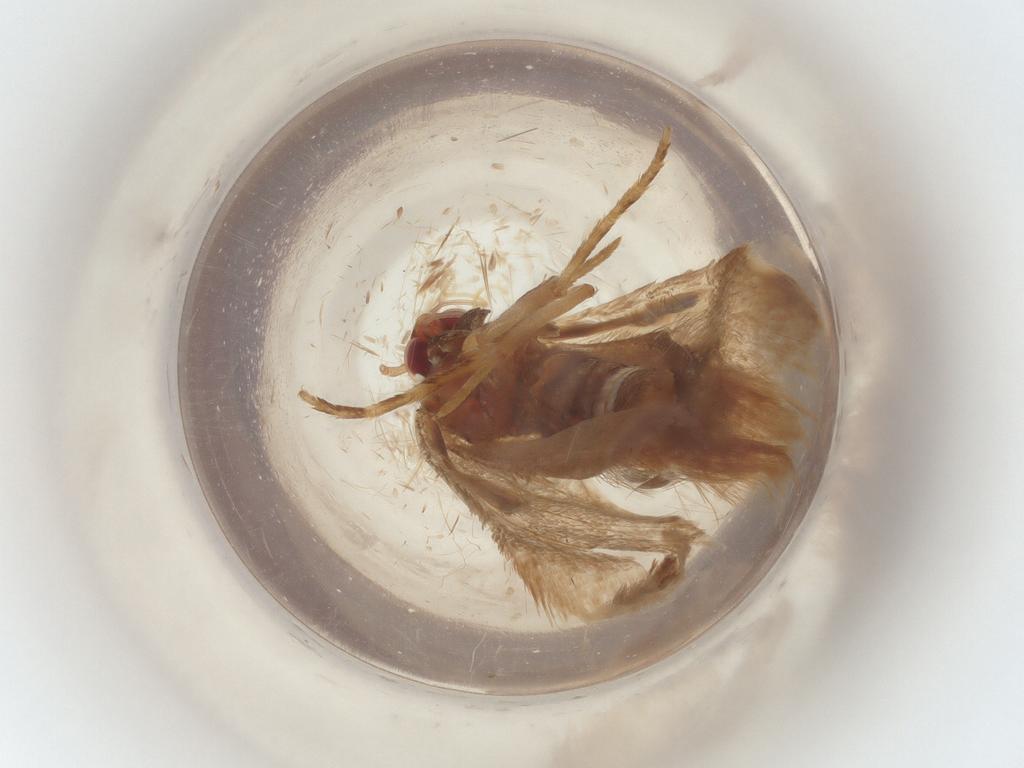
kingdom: Animalia
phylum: Arthropoda
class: Insecta
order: Lepidoptera
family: Gelechiidae
